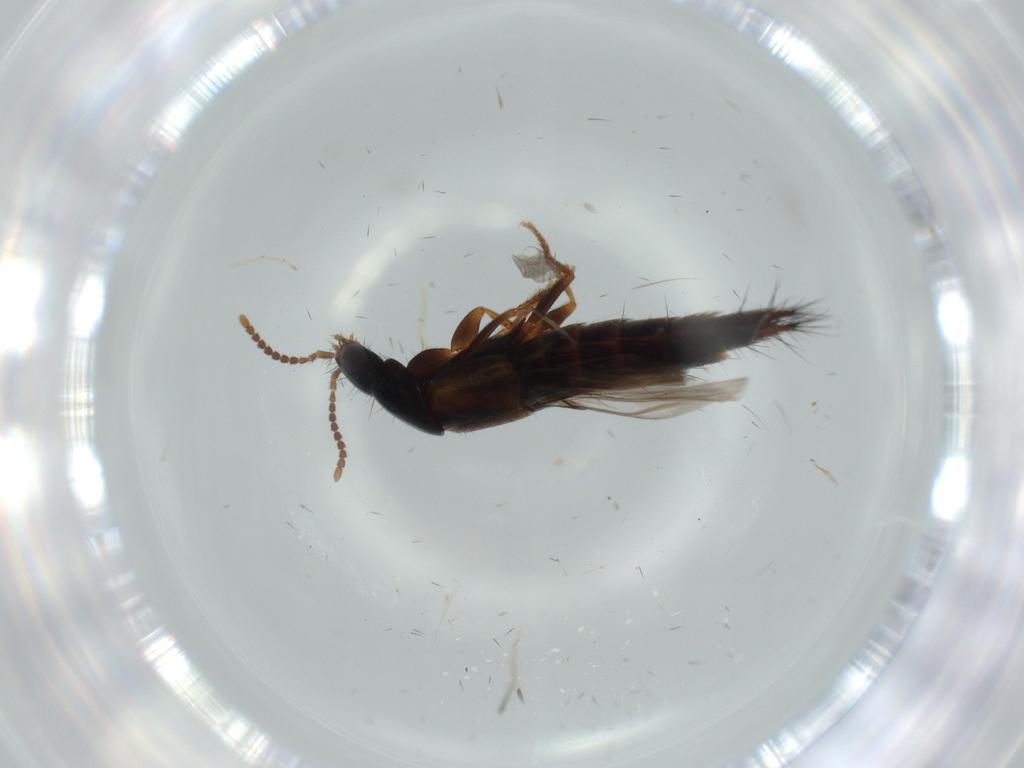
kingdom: Animalia
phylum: Arthropoda
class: Insecta
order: Coleoptera
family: Staphylinidae
